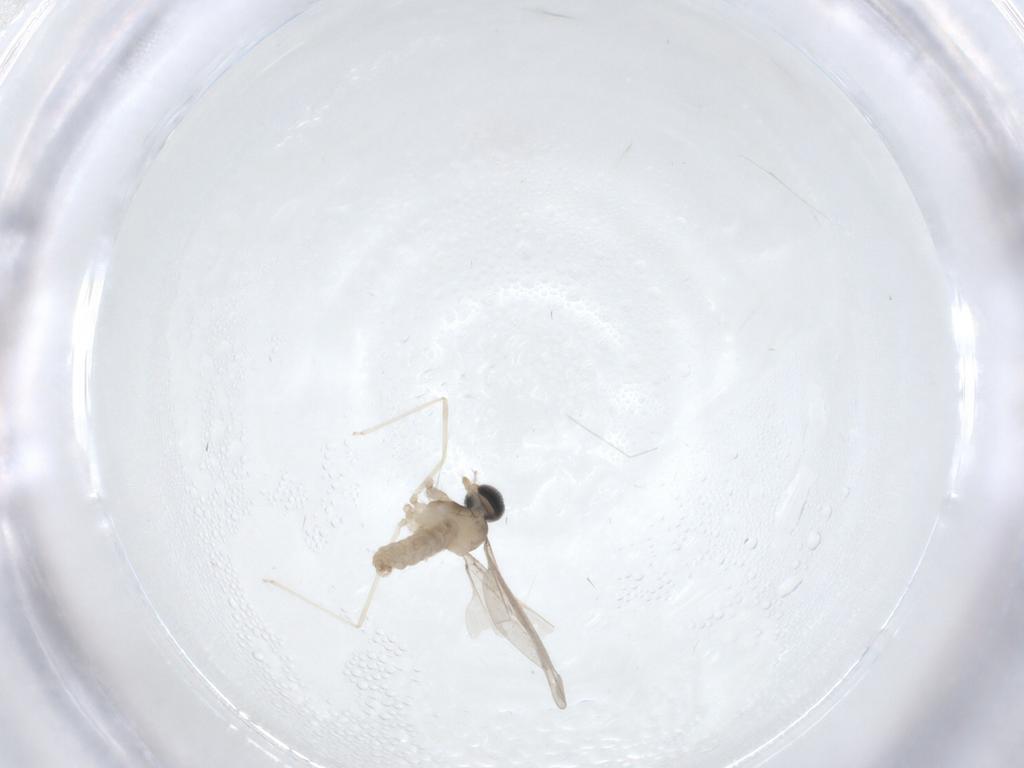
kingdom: Animalia
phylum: Arthropoda
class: Insecta
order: Diptera
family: Cecidomyiidae
